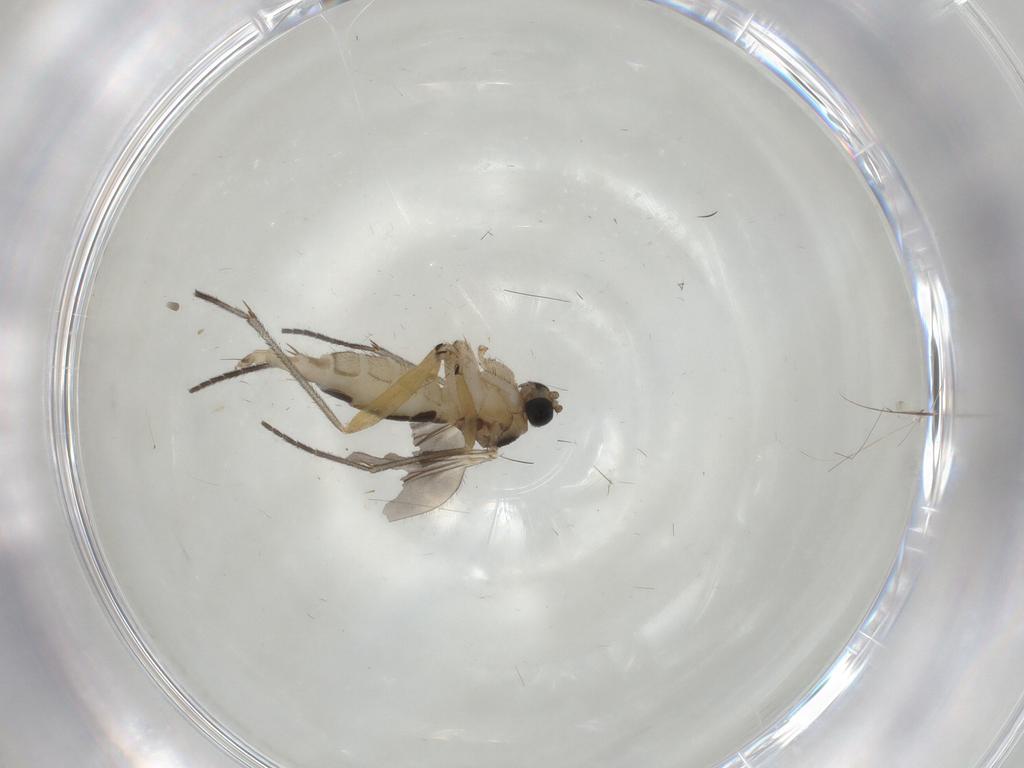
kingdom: Animalia
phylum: Arthropoda
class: Insecta
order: Diptera
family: Sciaridae
